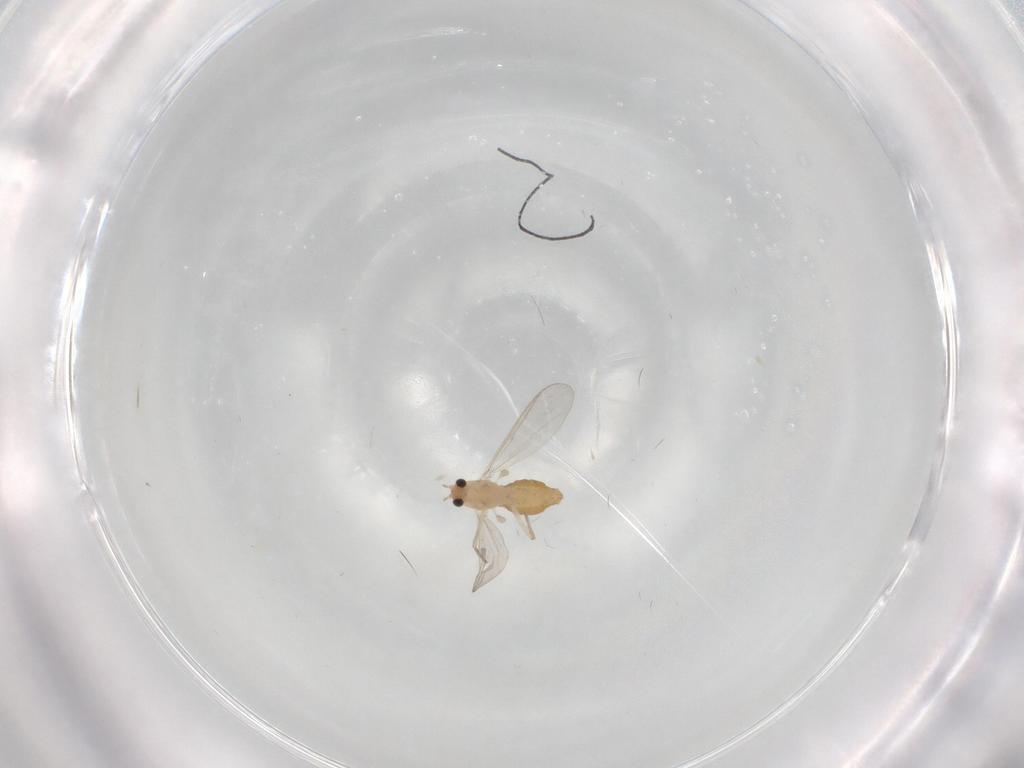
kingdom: Animalia
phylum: Arthropoda
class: Insecta
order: Diptera
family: Chironomidae
